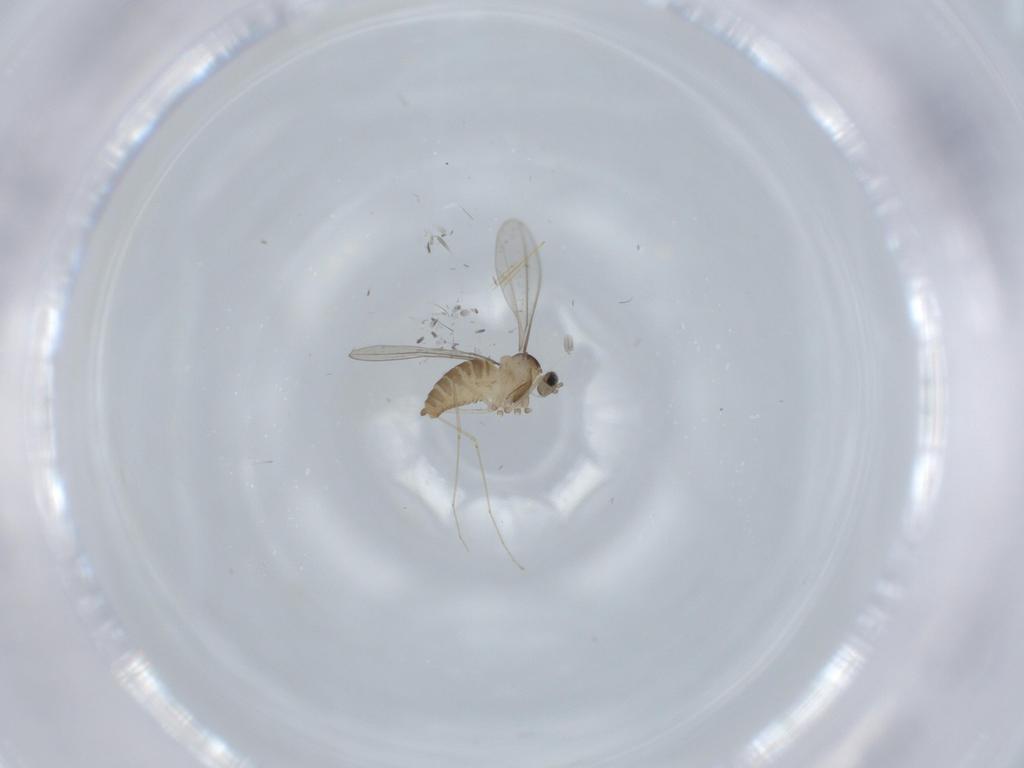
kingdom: Animalia
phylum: Arthropoda
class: Insecta
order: Diptera
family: Cecidomyiidae
